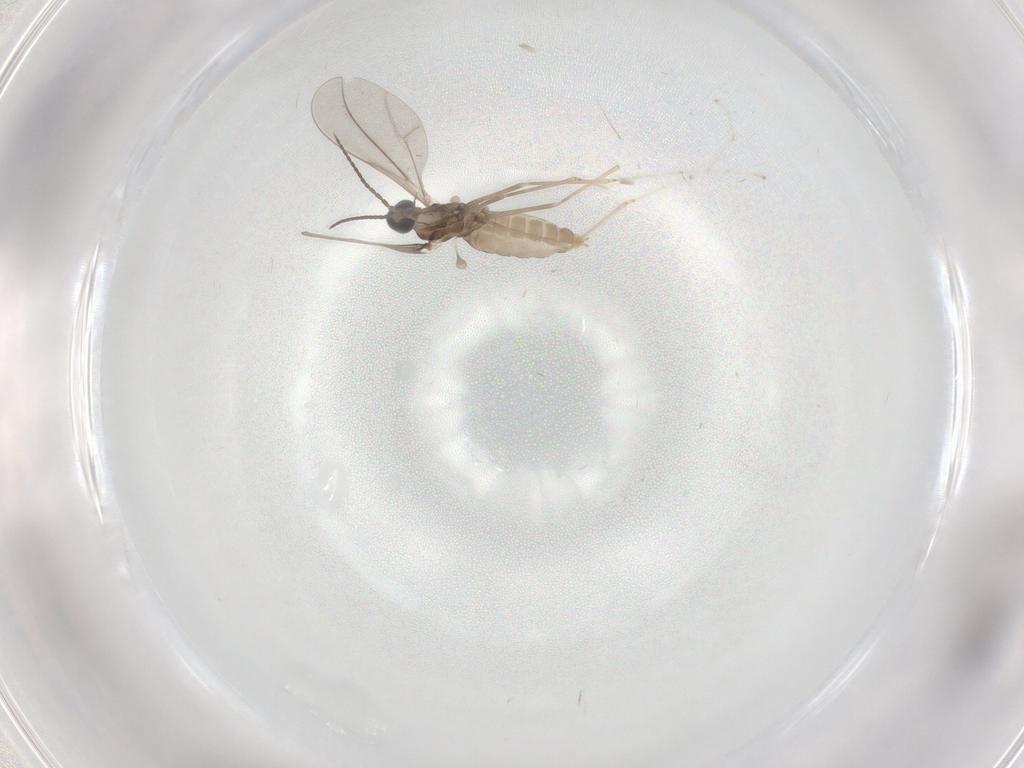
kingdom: Animalia
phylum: Arthropoda
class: Insecta
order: Diptera
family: Cecidomyiidae
